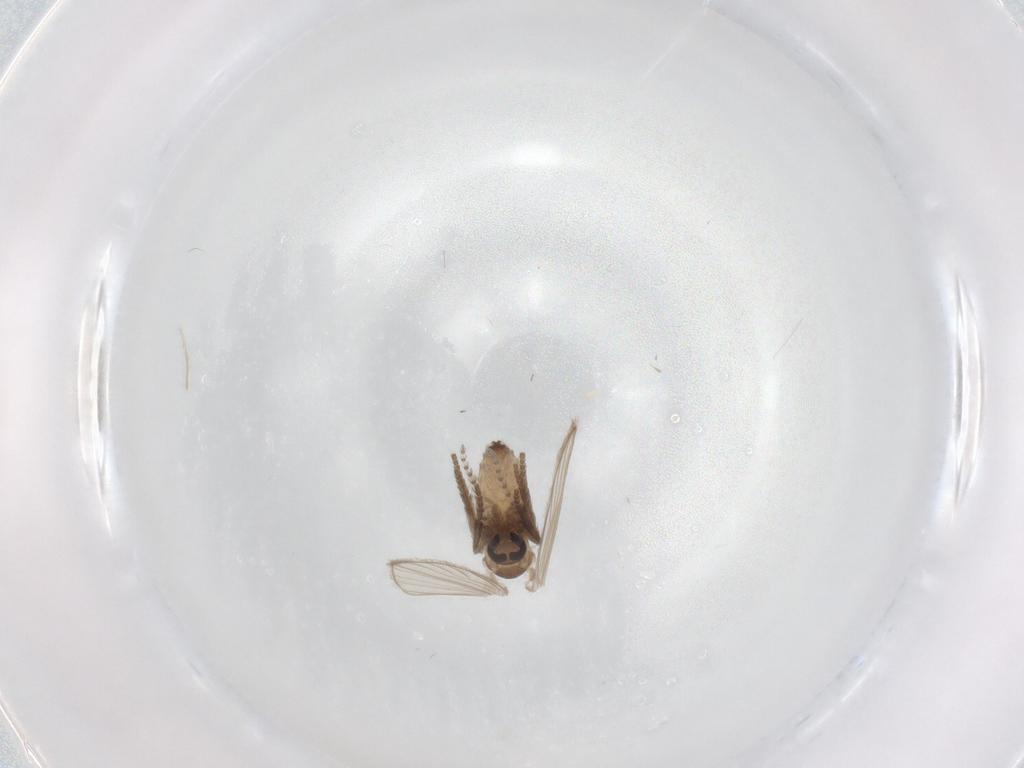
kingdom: Animalia
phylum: Arthropoda
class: Insecta
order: Diptera
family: Psychodidae
